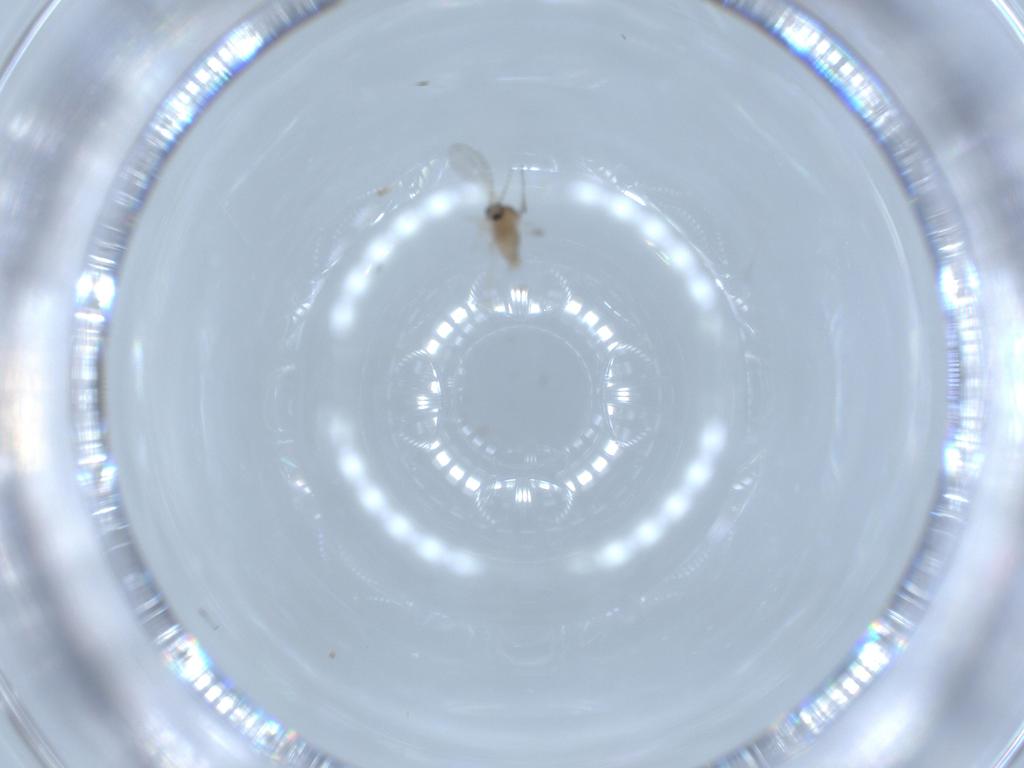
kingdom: Animalia
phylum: Arthropoda
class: Insecta
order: Diptera
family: Cecidomyiidae
